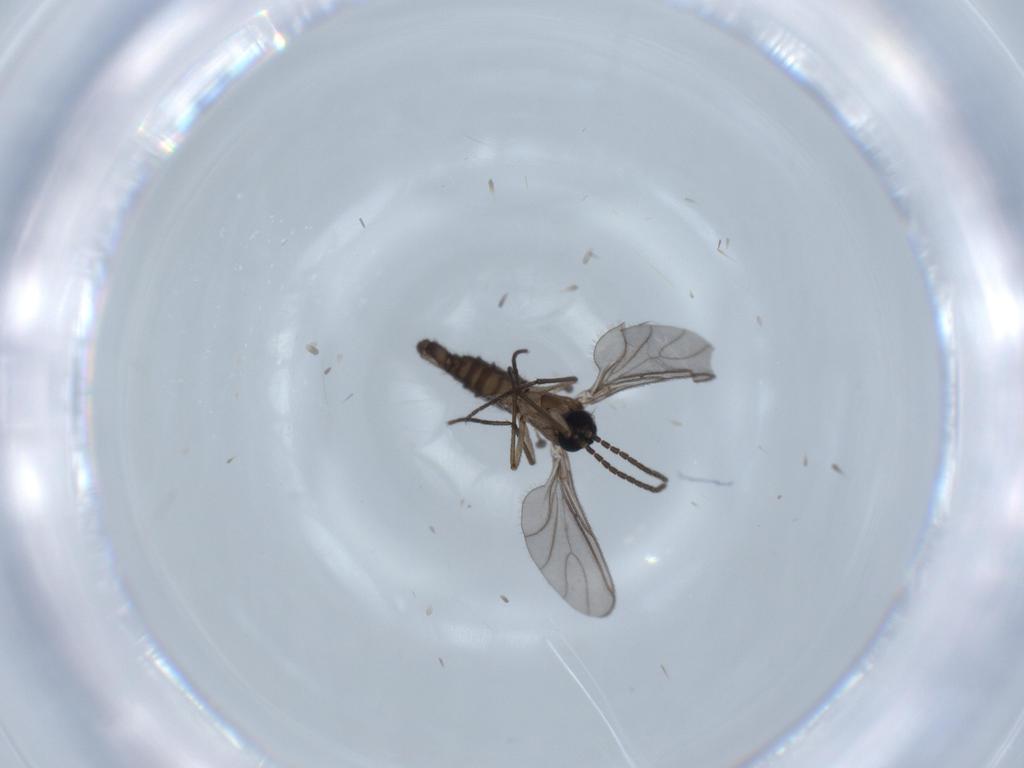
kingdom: Animalia
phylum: Arthropoda
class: Insecta
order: Diptera
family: Sciaridae
